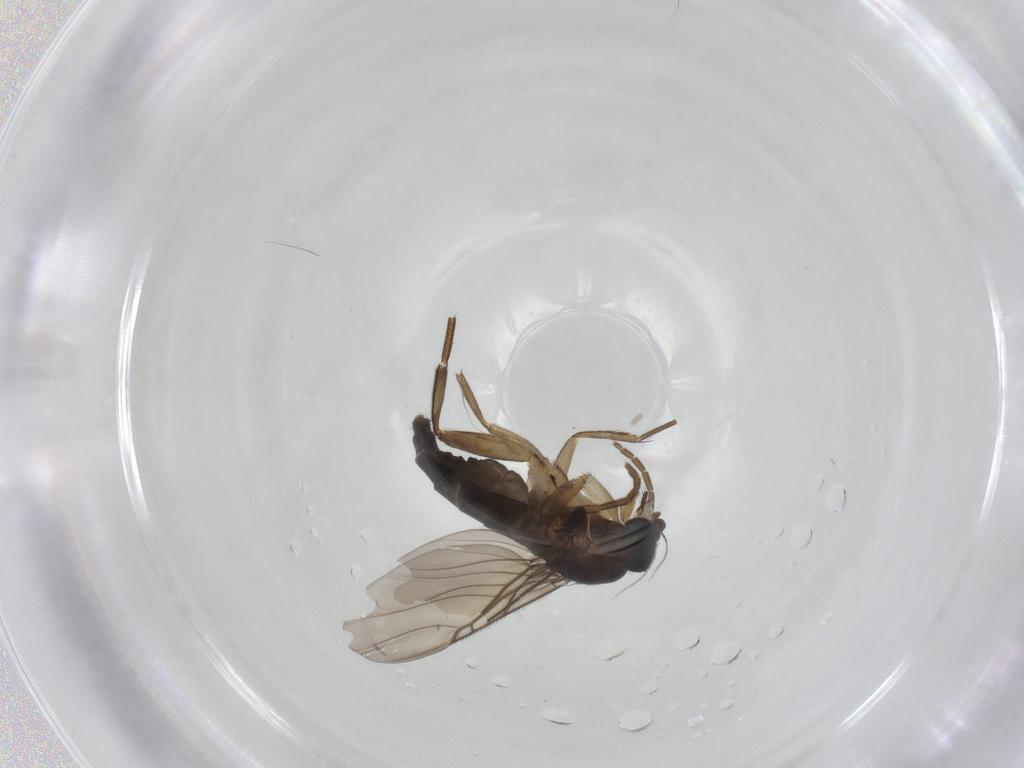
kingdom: Animalia
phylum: Arthropoda
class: Insecta
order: Diptera
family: Phoridae
